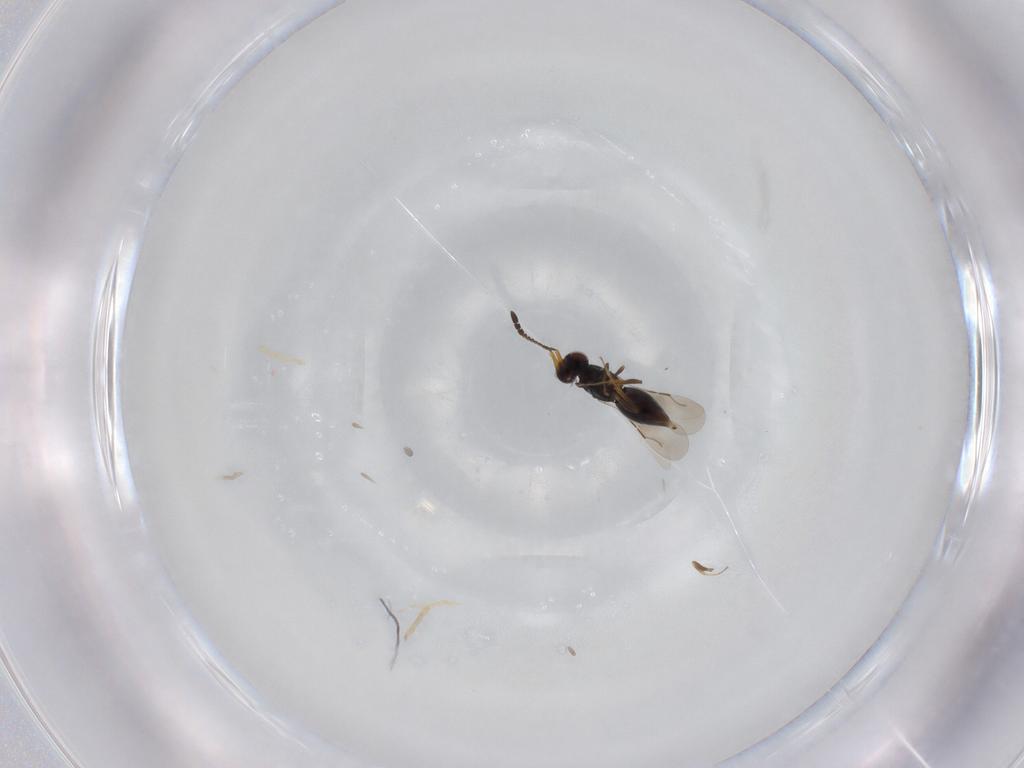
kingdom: Animalia
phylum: Arthropoda
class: Insecta
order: Hymenoptera
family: Vespidae
